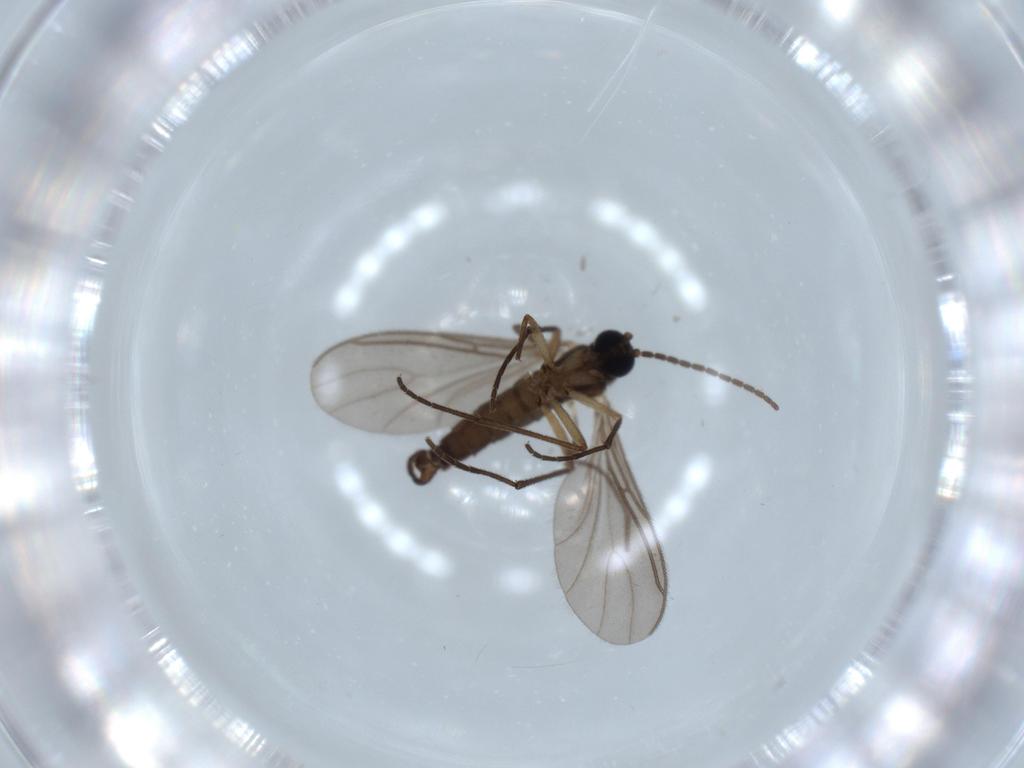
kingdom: Animalia
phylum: Arthropoda
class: Insecta
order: Diptera
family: Sciaridae
